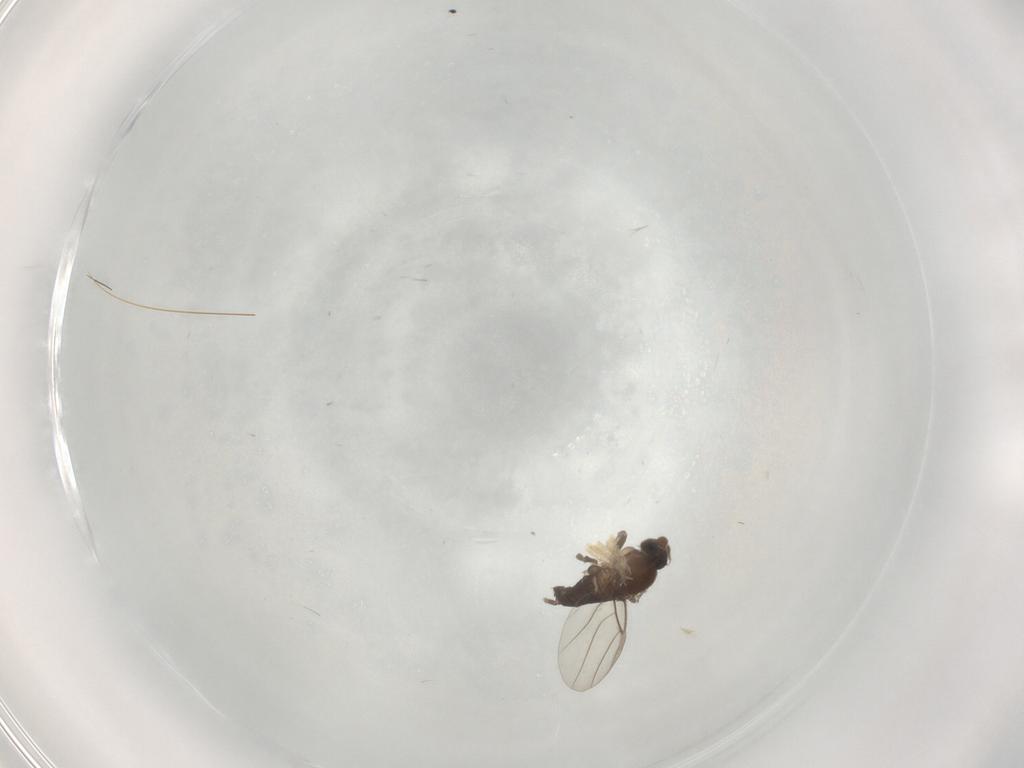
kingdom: Animalia
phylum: Arthropoda
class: Insecta
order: Diptera
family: Phoridae
